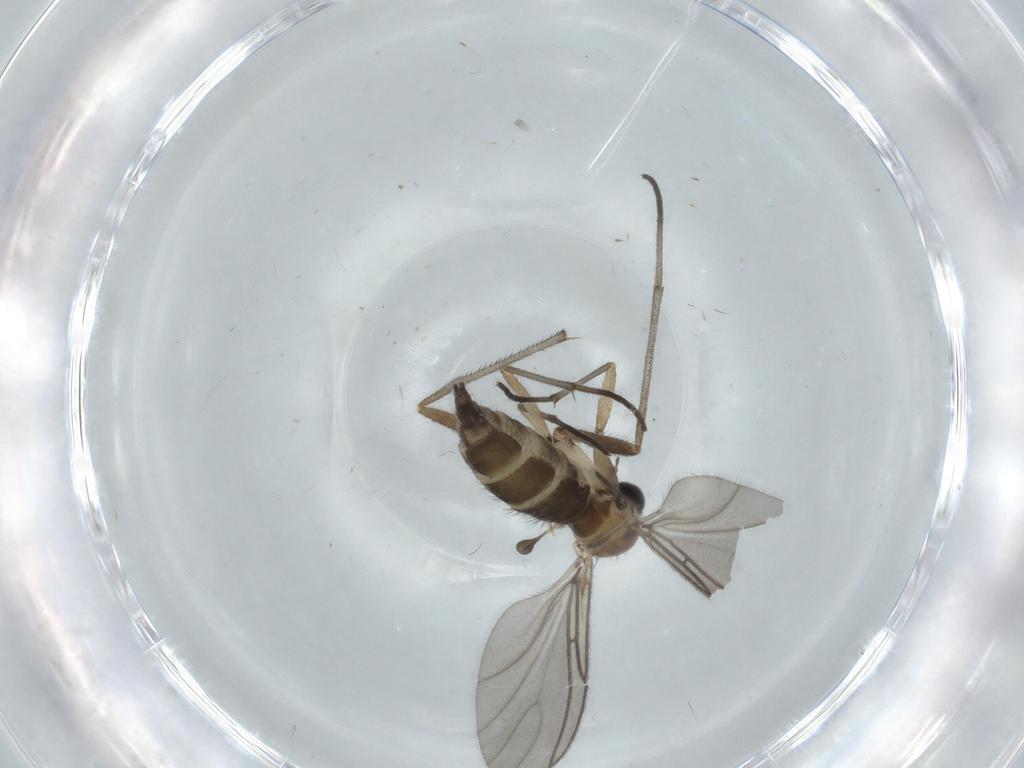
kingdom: Animalia
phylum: Arthropoda
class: Insecta
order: Diptera
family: Sciaridae
